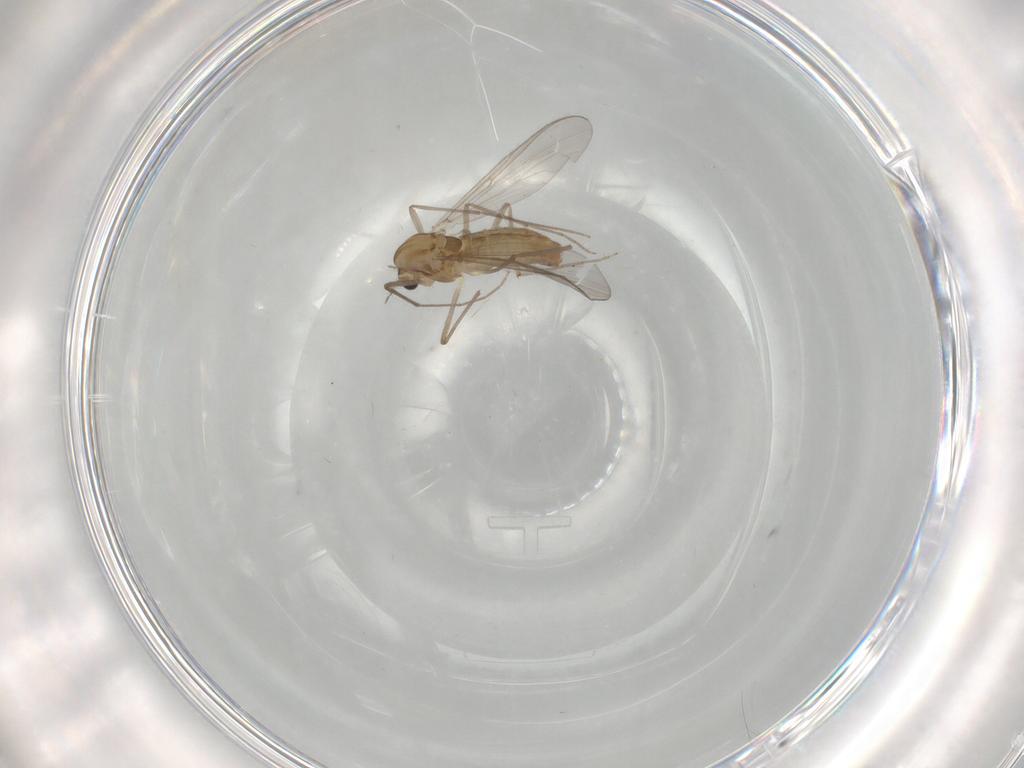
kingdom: Animalia
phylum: Arthropoda
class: Insecta
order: Diptera
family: Chironomidae
